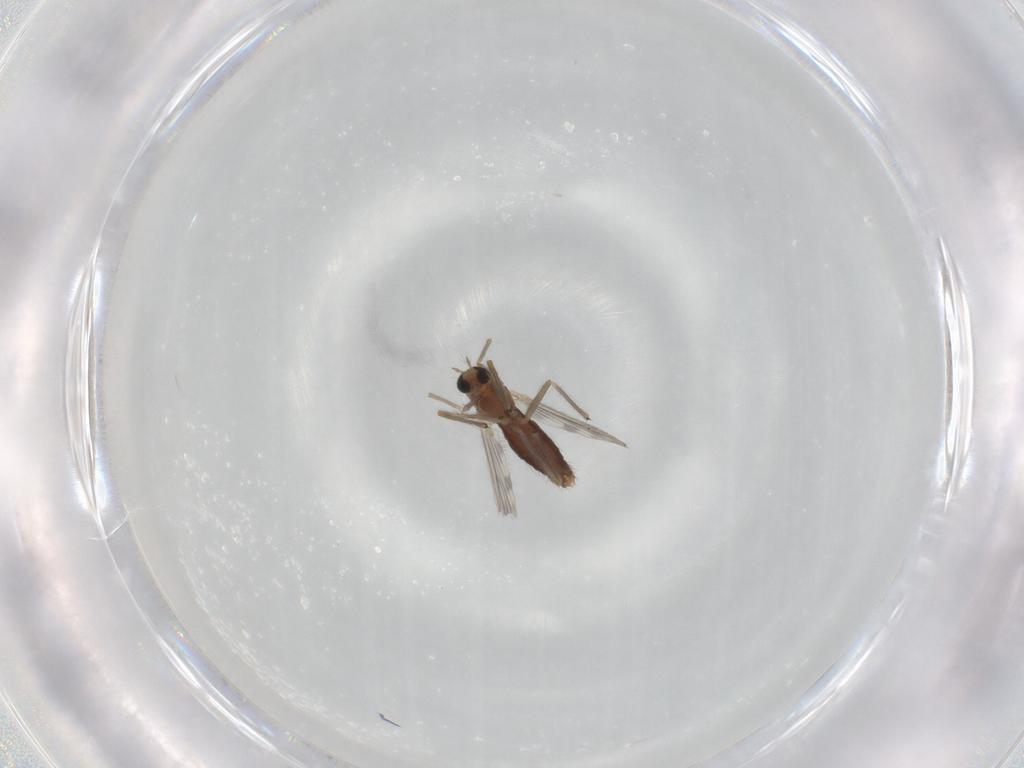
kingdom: Animalia
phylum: Arthropoda
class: Insecta
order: Diptera
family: Chironomidae
